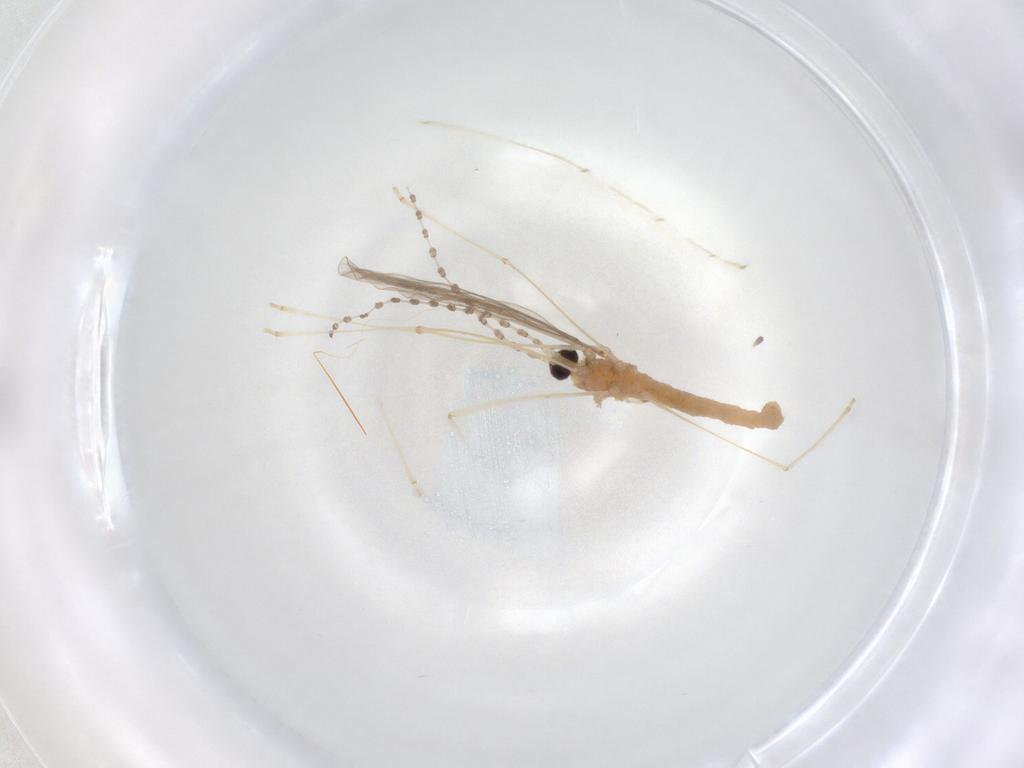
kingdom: Animalia
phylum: Arthropoda
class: Insecta
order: Diptera
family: Cecidomyiidae
